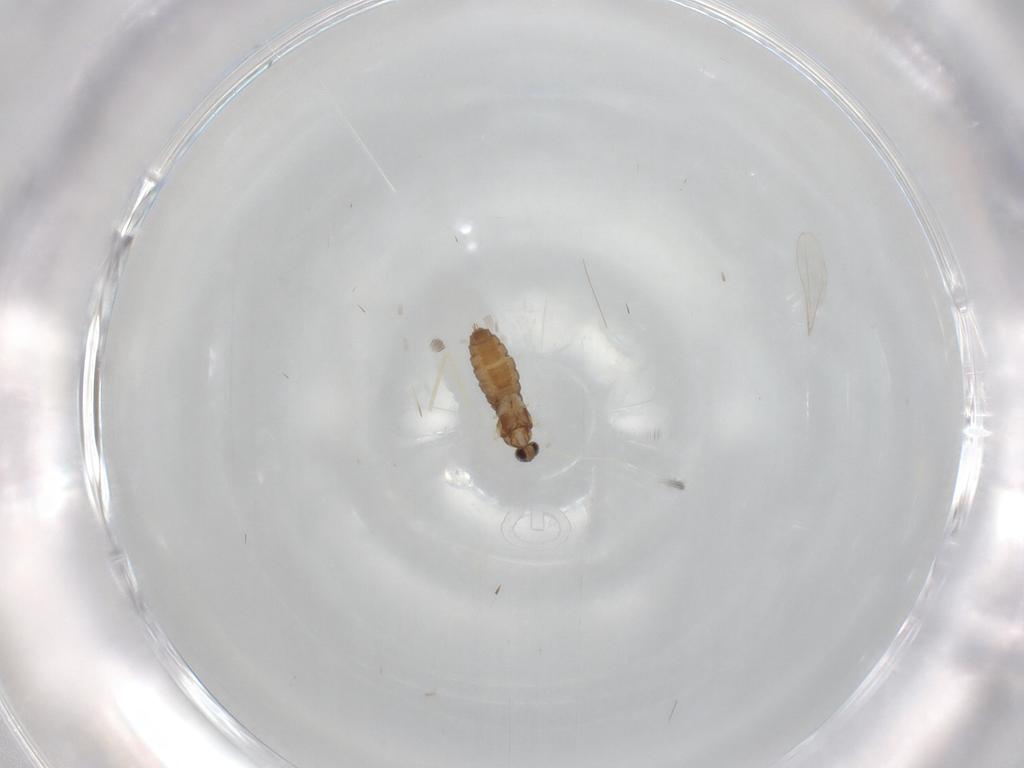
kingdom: Animalia
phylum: Arthropoda
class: Insecta
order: Diptera
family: Cecidomyiidae
